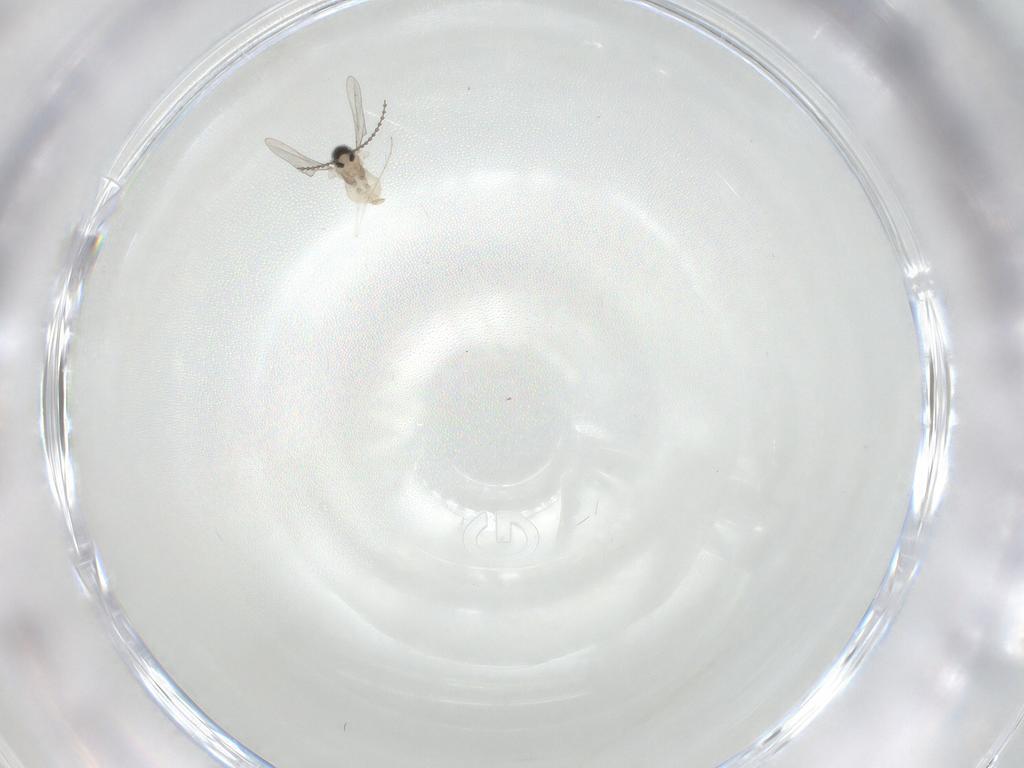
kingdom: Animalia
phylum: Arthropoda
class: Insecta
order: Diptera
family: Cecidomyiidae
